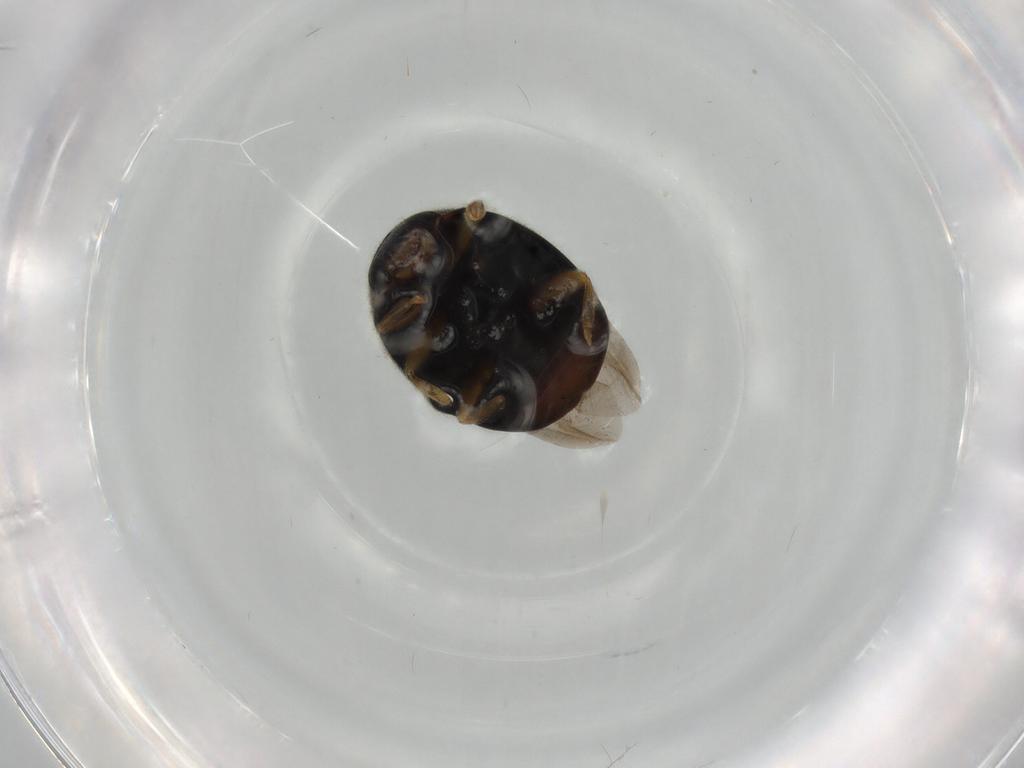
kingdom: Animalia
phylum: Arthropoda
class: Insecta
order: Coleoptera
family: Coccinellidae
